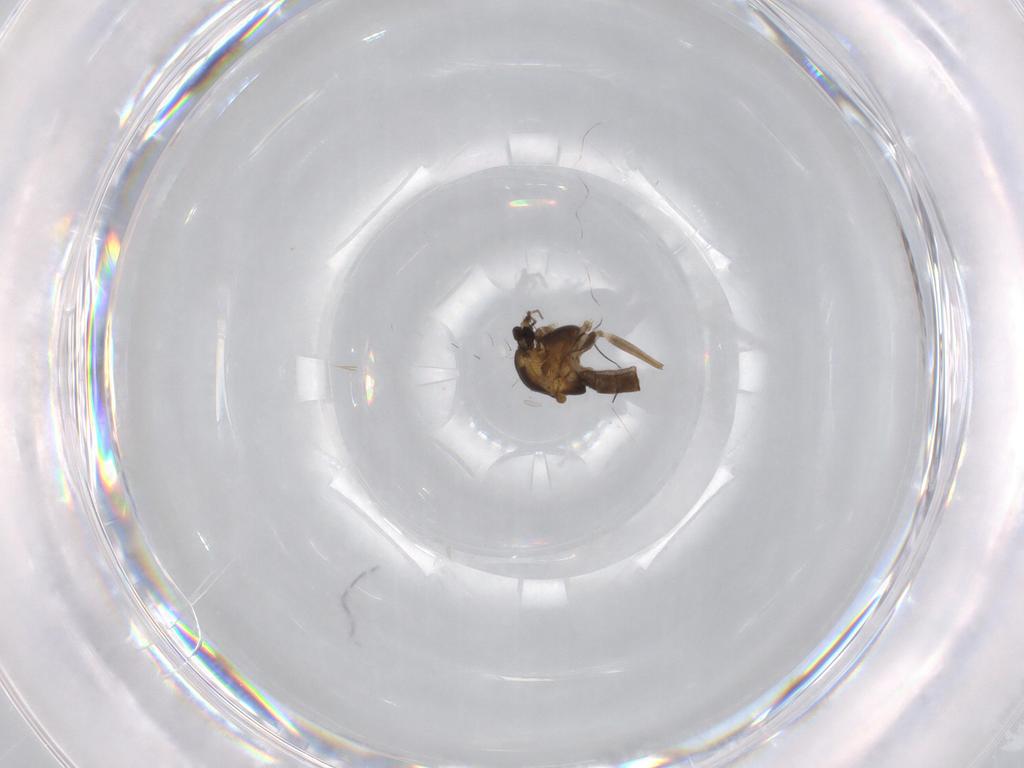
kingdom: Animalia
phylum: Arthropoda
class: Insecta
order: Diptera
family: Chironomidae
